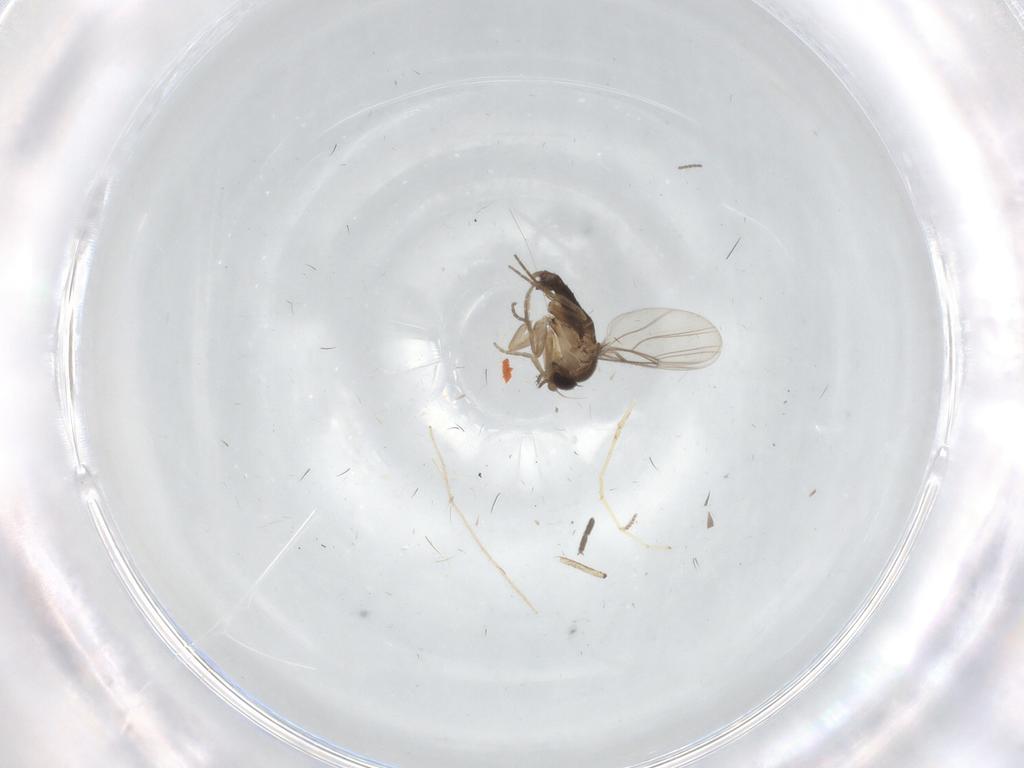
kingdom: Animalia
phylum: Arthropoda
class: Insecta
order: Diptera
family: Phoridae
